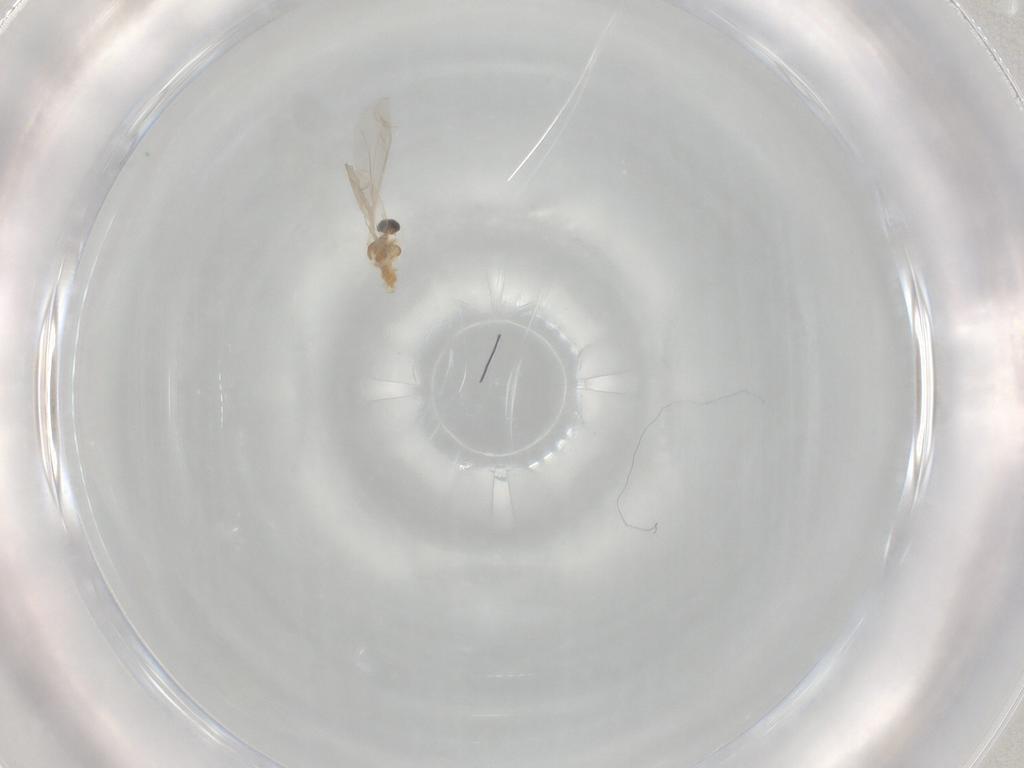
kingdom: Animalia
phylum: Arthropoda
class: Insecta
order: Diptera
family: Cecidomyiidae
